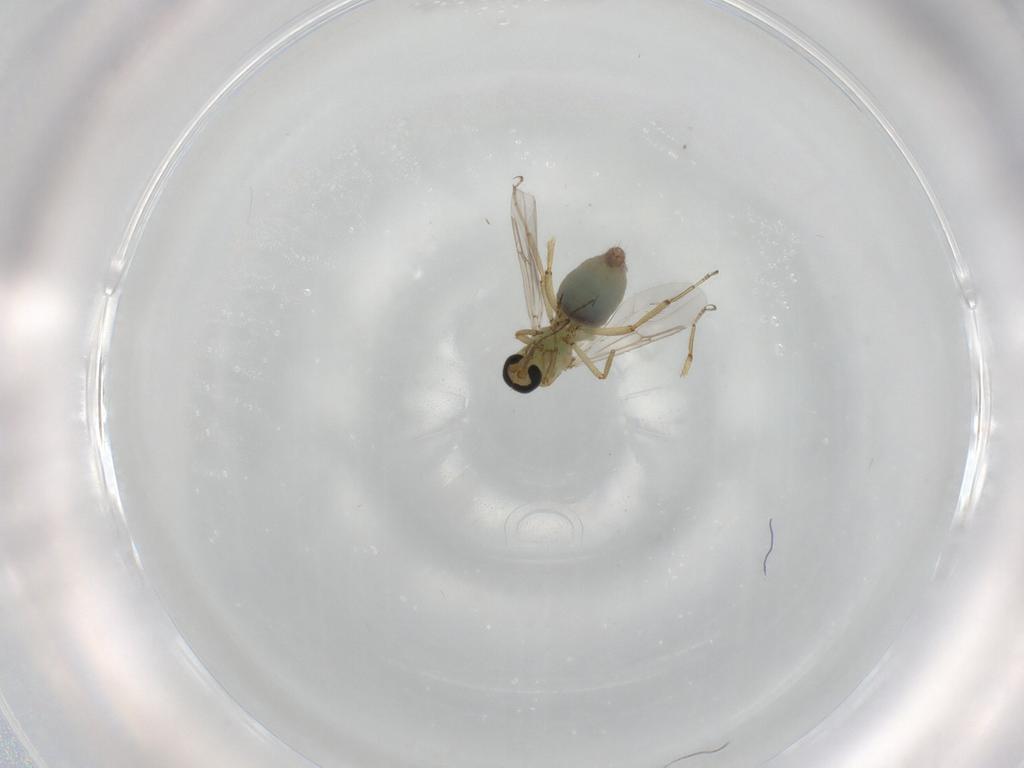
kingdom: Animalia
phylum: Arthropoda
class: Insecta
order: Diptera
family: Ceratopogonidae
